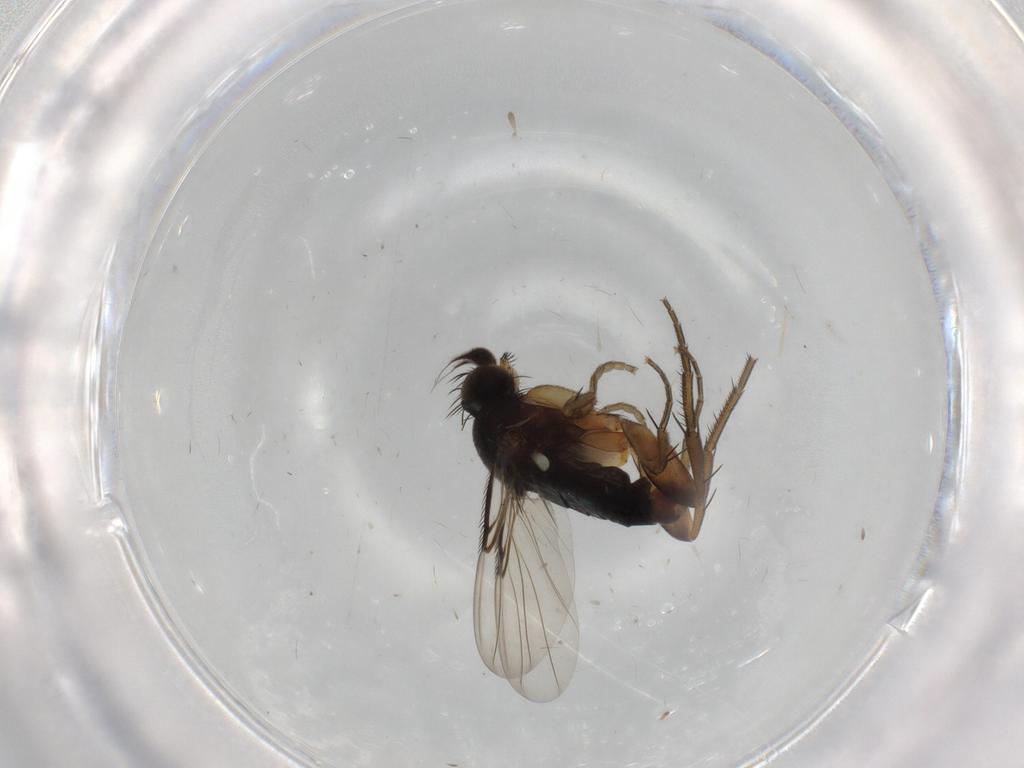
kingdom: Animalia
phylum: Arthropoda
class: Insecta
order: Diptera
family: Phoridae
